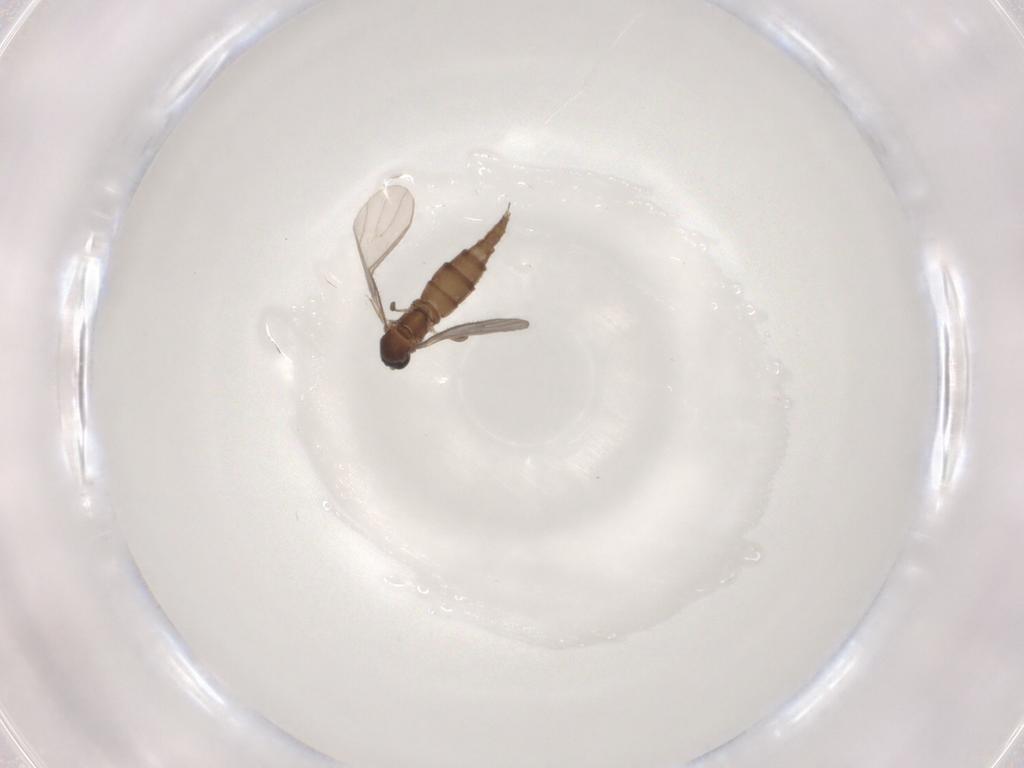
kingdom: Animalia
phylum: Arthropoda
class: Insecta
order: Diptera
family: Sciaridae
